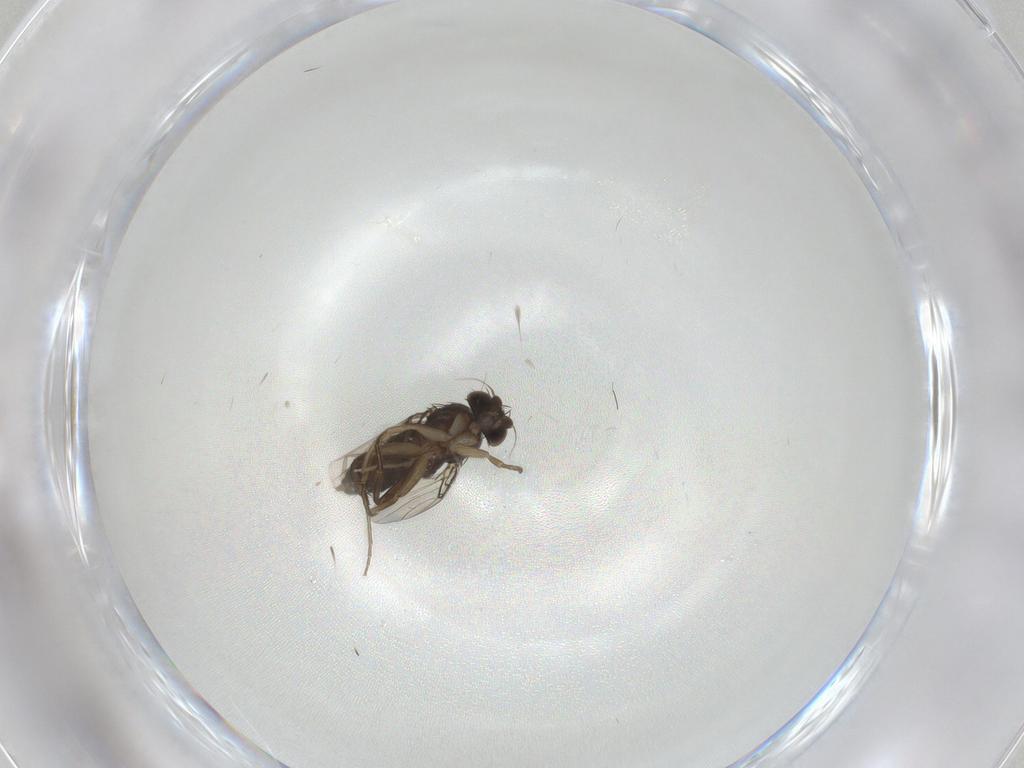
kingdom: Animalia
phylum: Arthropoda
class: Insecta
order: Diptera
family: Phoridae
